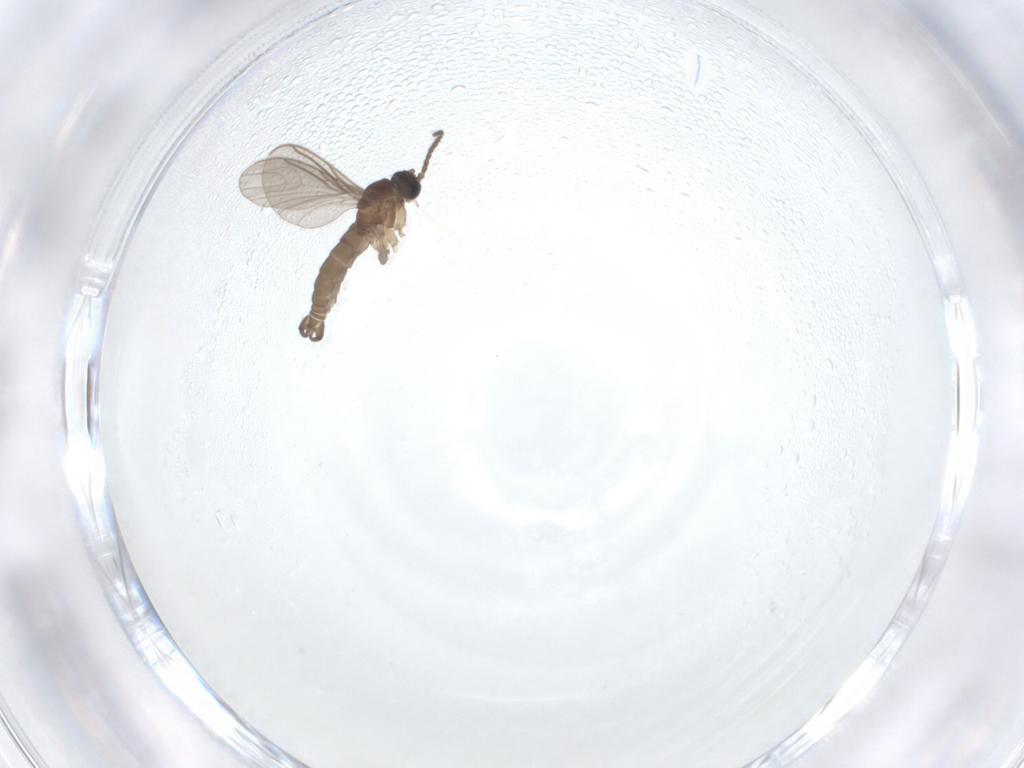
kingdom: Animalia
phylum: Arthropoda
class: Insecta
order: Diptera
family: Sciaridae
